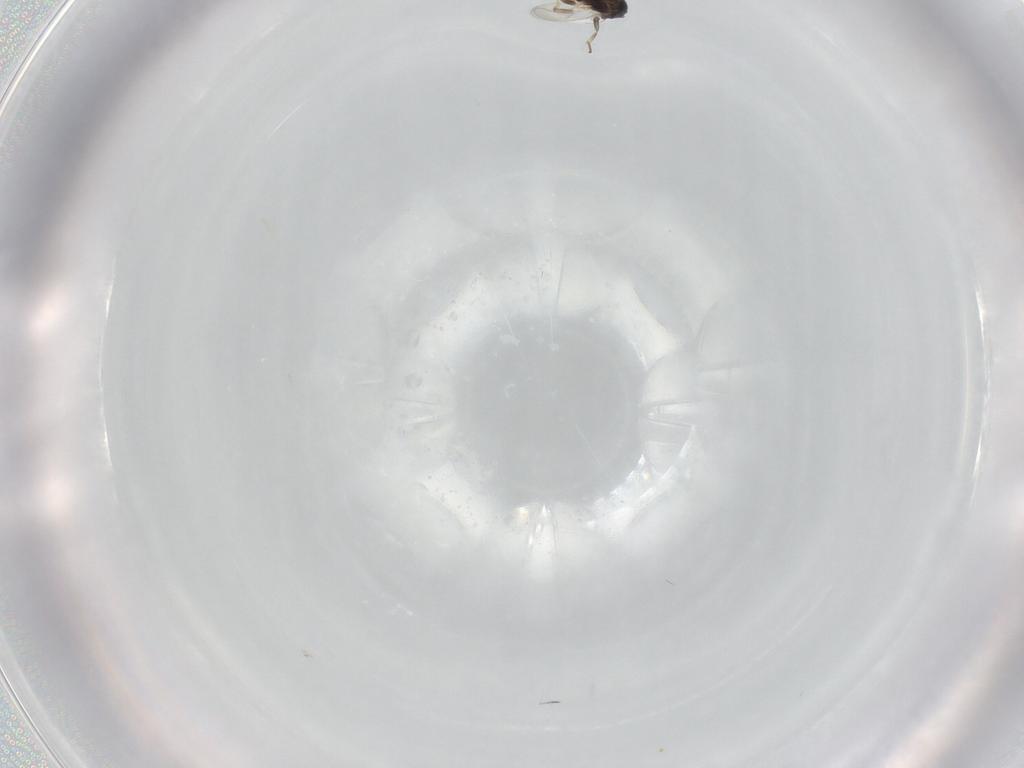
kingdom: Animalia
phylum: Arthropoda
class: Insecta
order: Hymenoptera
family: Aphelinidae
